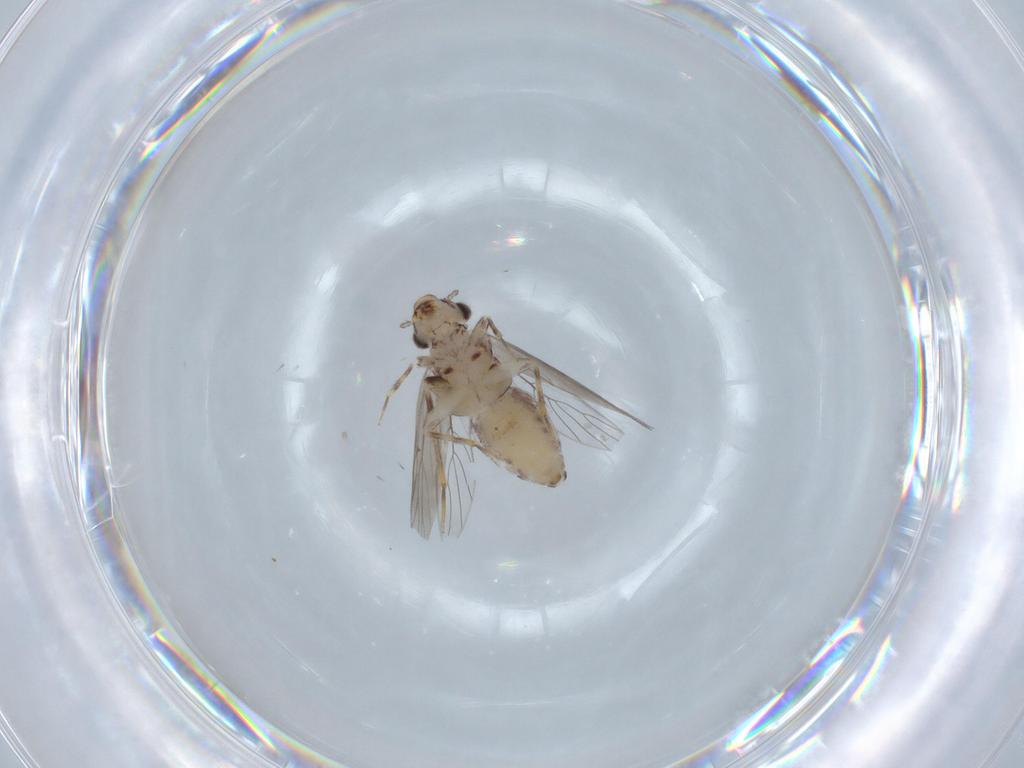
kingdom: Animalia
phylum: Arthropoda
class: Insecta
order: Psocodea
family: Lepidopsocidae
